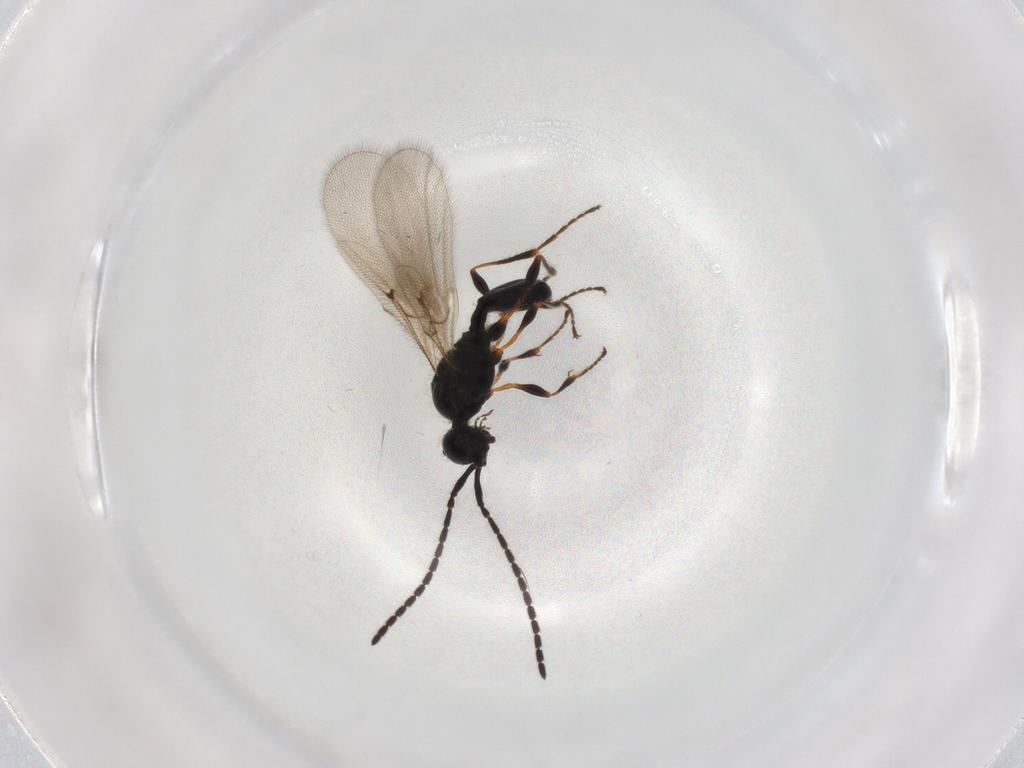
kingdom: Animalia
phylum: Arthropoda
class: Insecta
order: Hymenoptera
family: Diapriidae
